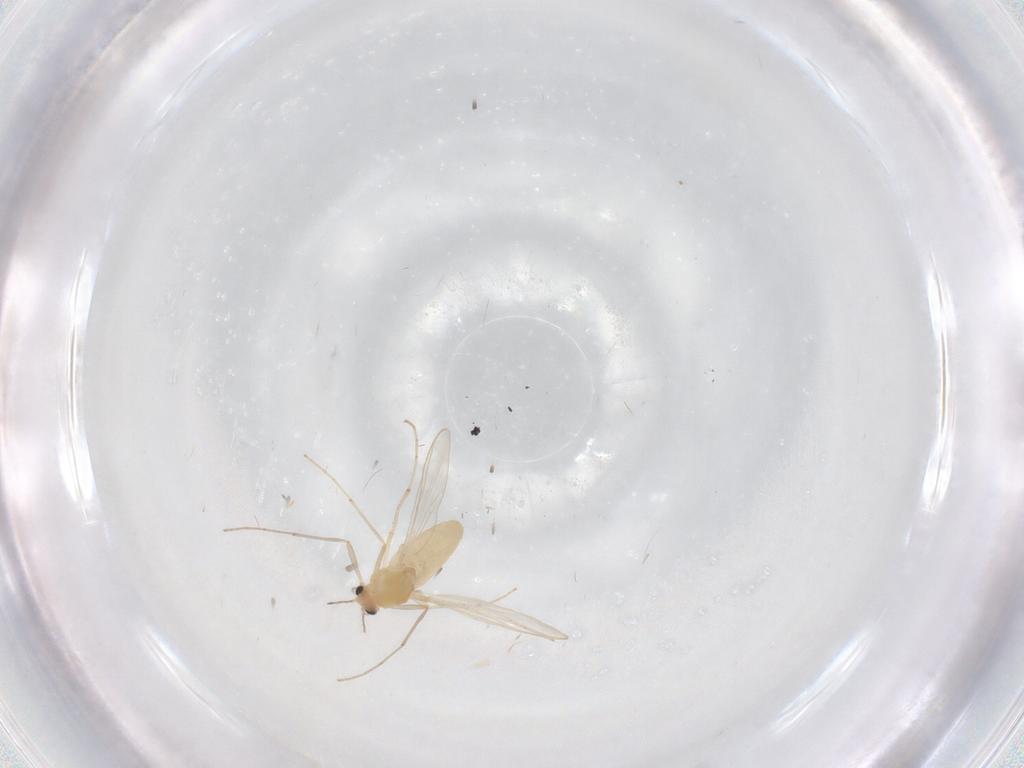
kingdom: Animalia
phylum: Arthropoda
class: Insecta
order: Diptera
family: Chironomidae
